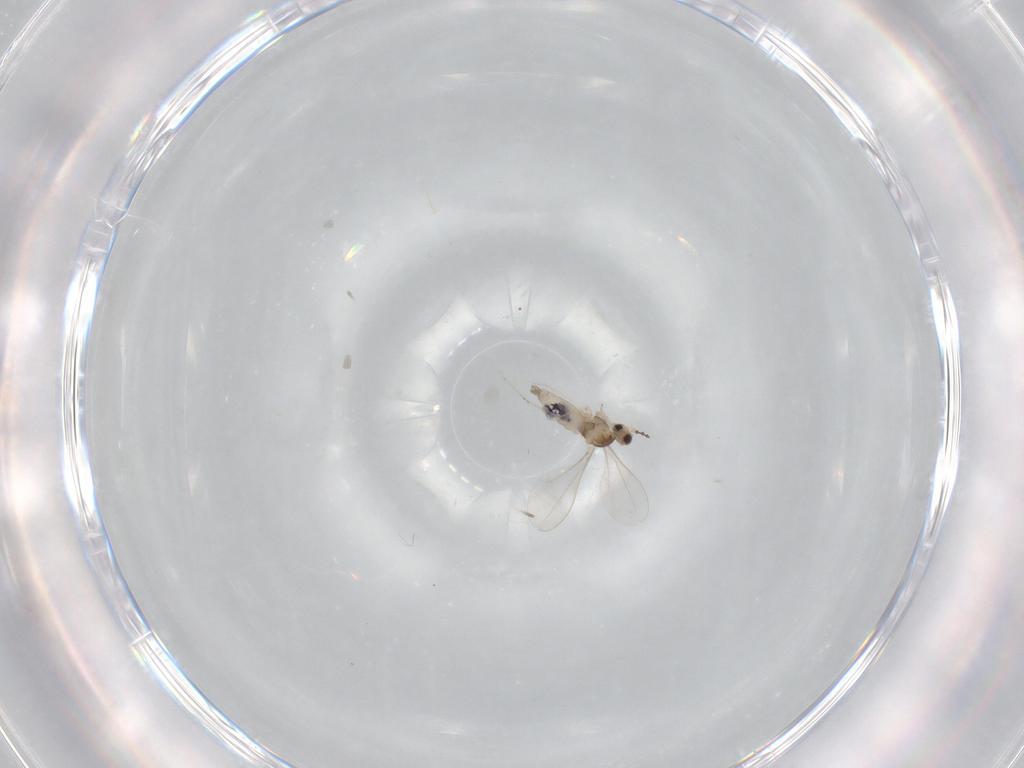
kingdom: Animalia
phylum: Arthropoda
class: Insecta
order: Diptera
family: Cecidomyiidae
